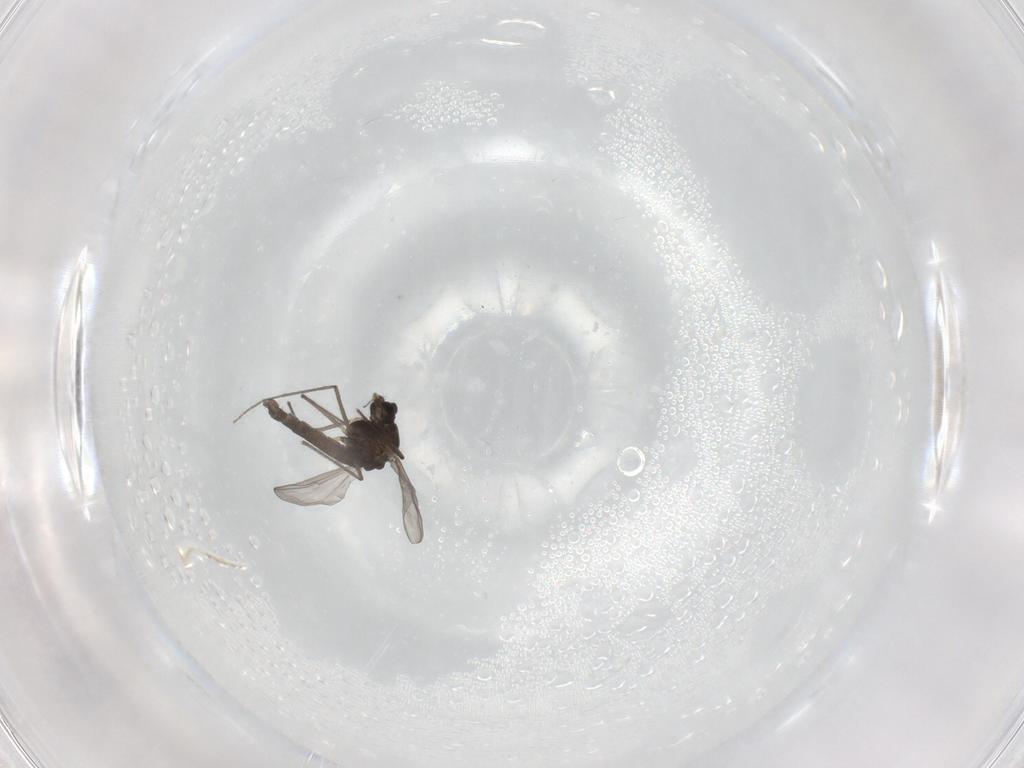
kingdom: Animalia
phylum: Arthropoda
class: Insecta
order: Diptera
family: Chironomidae
